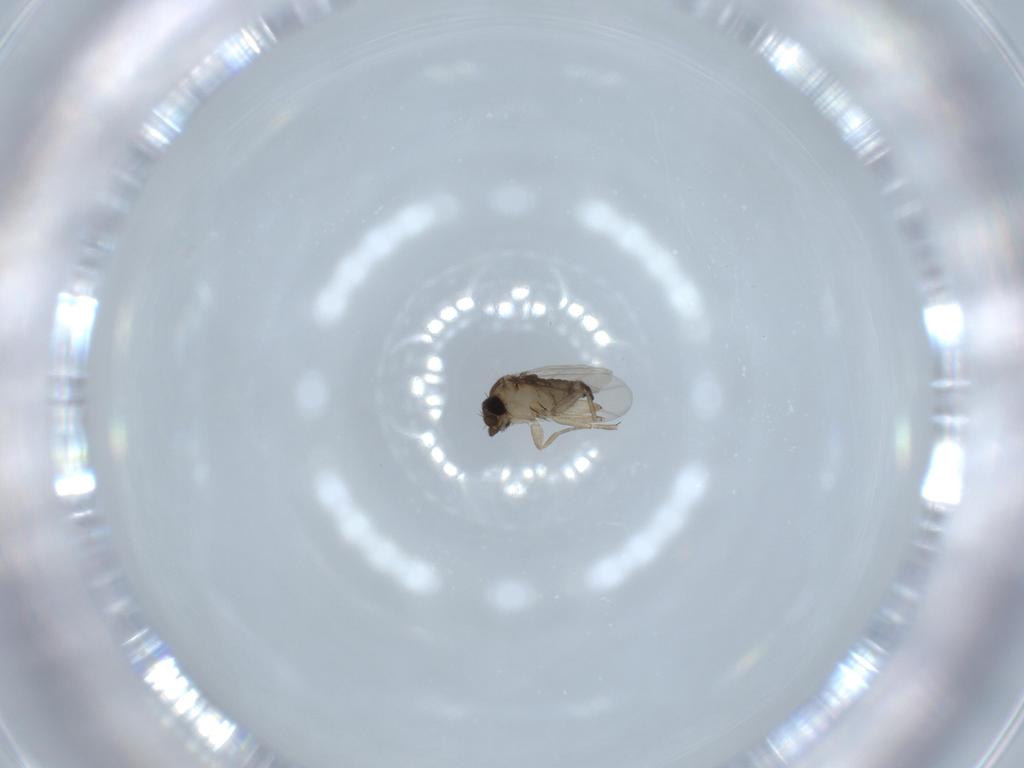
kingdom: Animalia
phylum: Arthropoda
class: Insecta
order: Diptera
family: Phoridae
